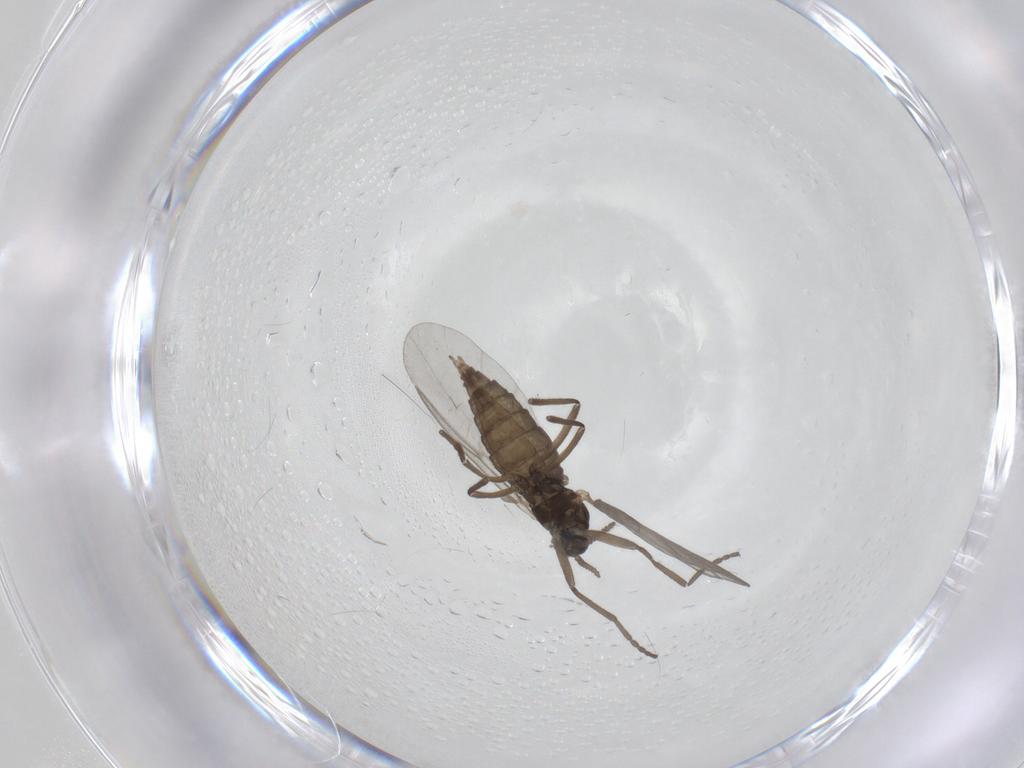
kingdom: Animalia
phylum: Arthropoda
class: Insecta
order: Diptera
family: Cecidomyiidae
